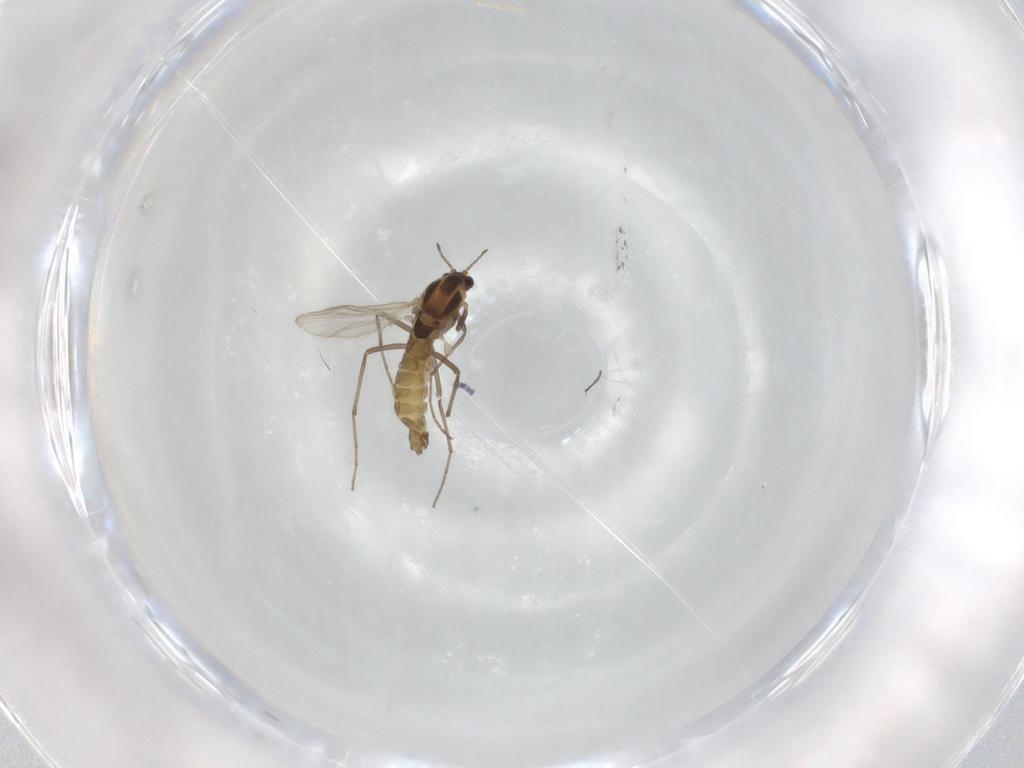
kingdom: Animalia
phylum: Arthropoda
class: Insecta
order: Diptera
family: Chironomidae
